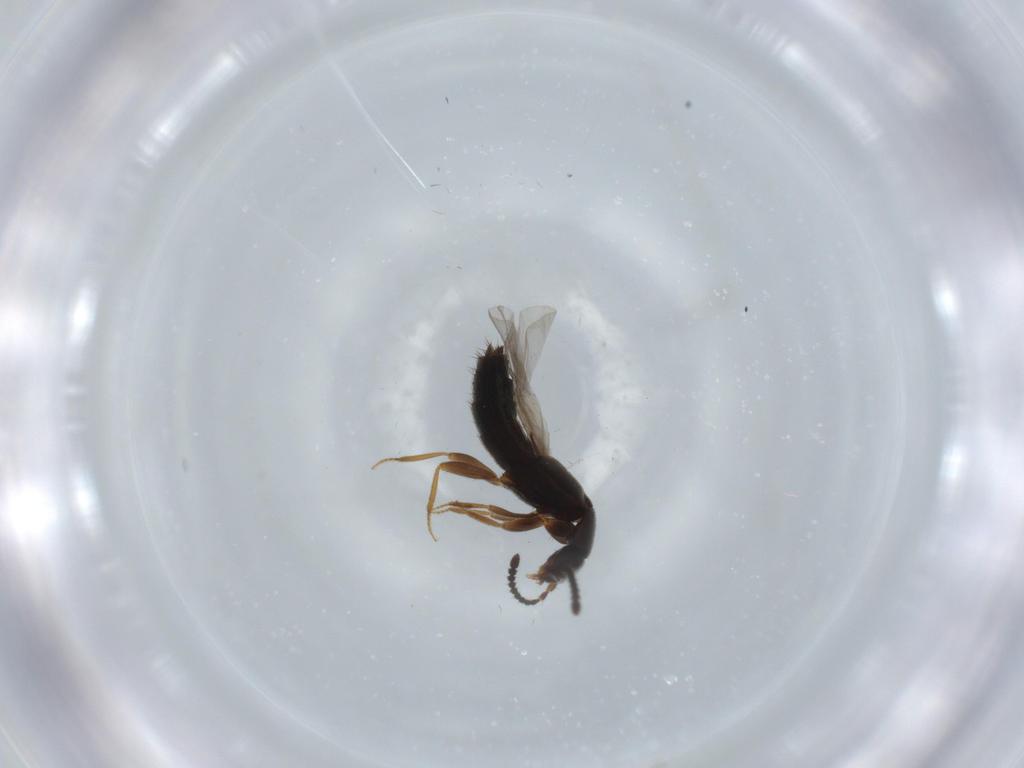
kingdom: Animalia
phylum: Arthropoda
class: Insecta
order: Coleoptera
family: Staphylinidae
